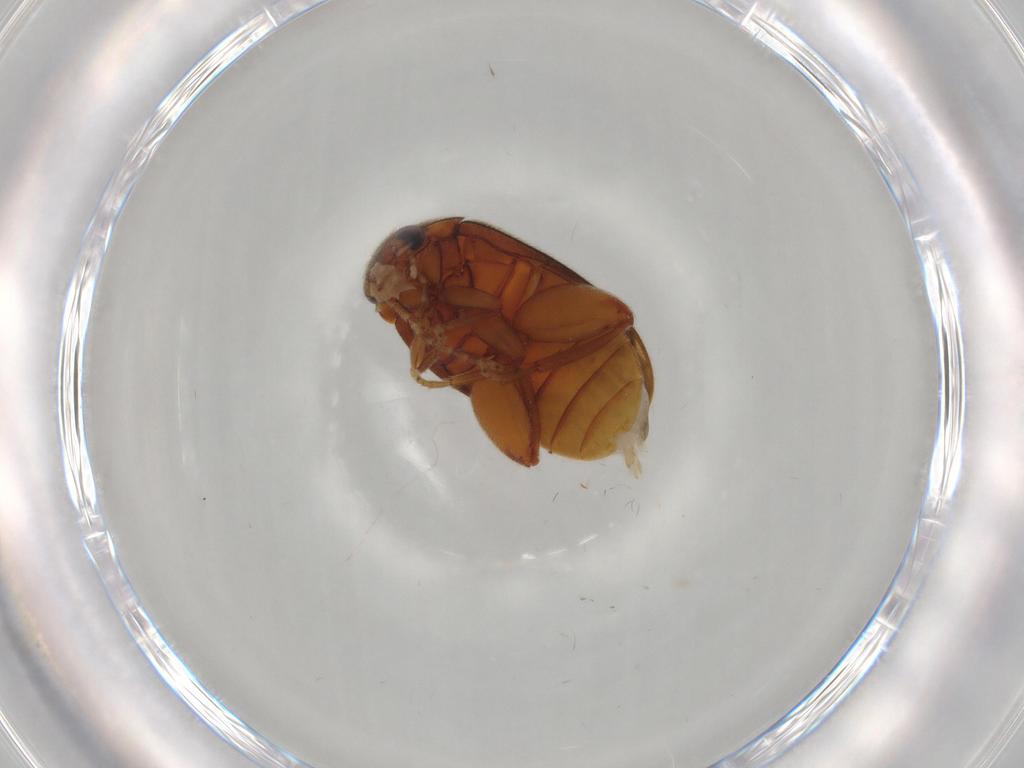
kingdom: Animalia
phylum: Arthropoda
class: Insecta
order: Coleoptera
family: Scirtidae
